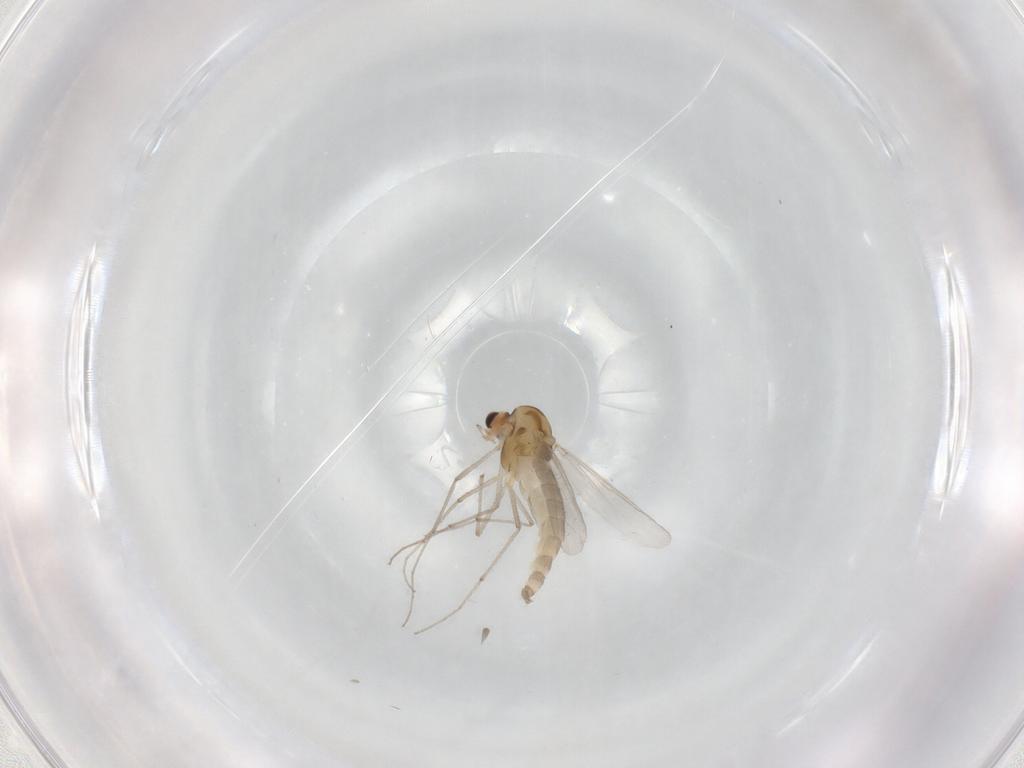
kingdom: Animalia
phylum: Arthropoda
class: Insecta
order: Diptera
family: Chironomidae
